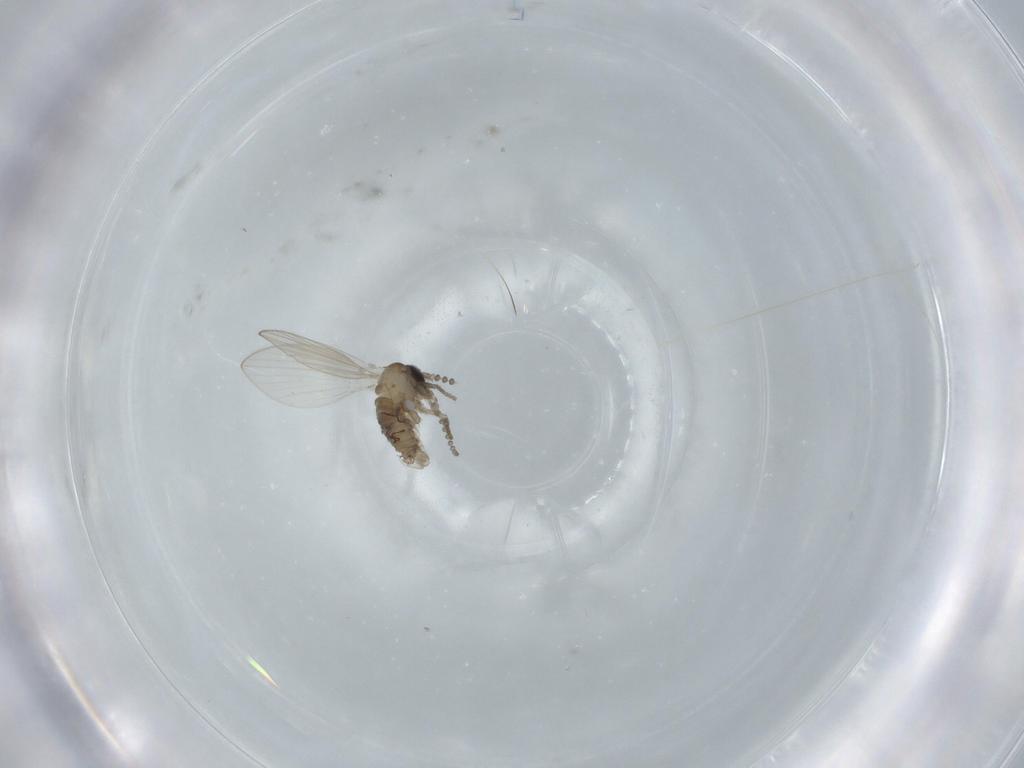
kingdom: Animalia
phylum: Arthropoda
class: Insecta
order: Diptera
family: Psychodidae
